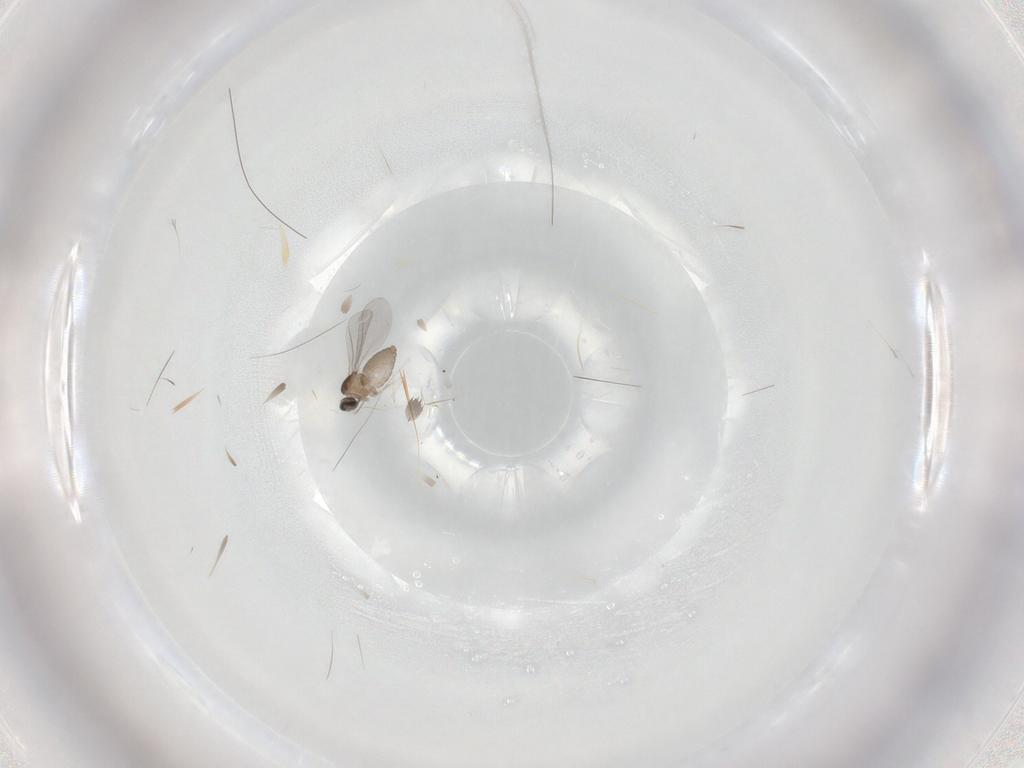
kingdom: Animalia
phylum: Arthropoda
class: Insecta
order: Diptera
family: Cecidomyiidae
